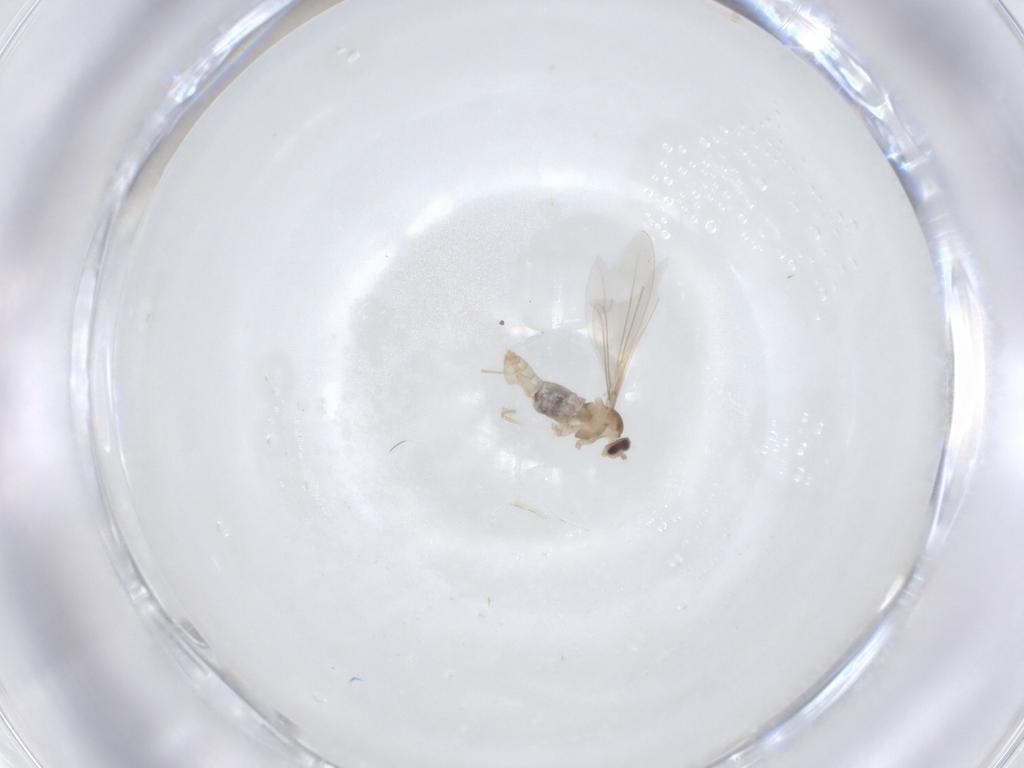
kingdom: Animalia
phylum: Arthropoda
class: Insecta
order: Diptera
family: Cecidomyiidae
